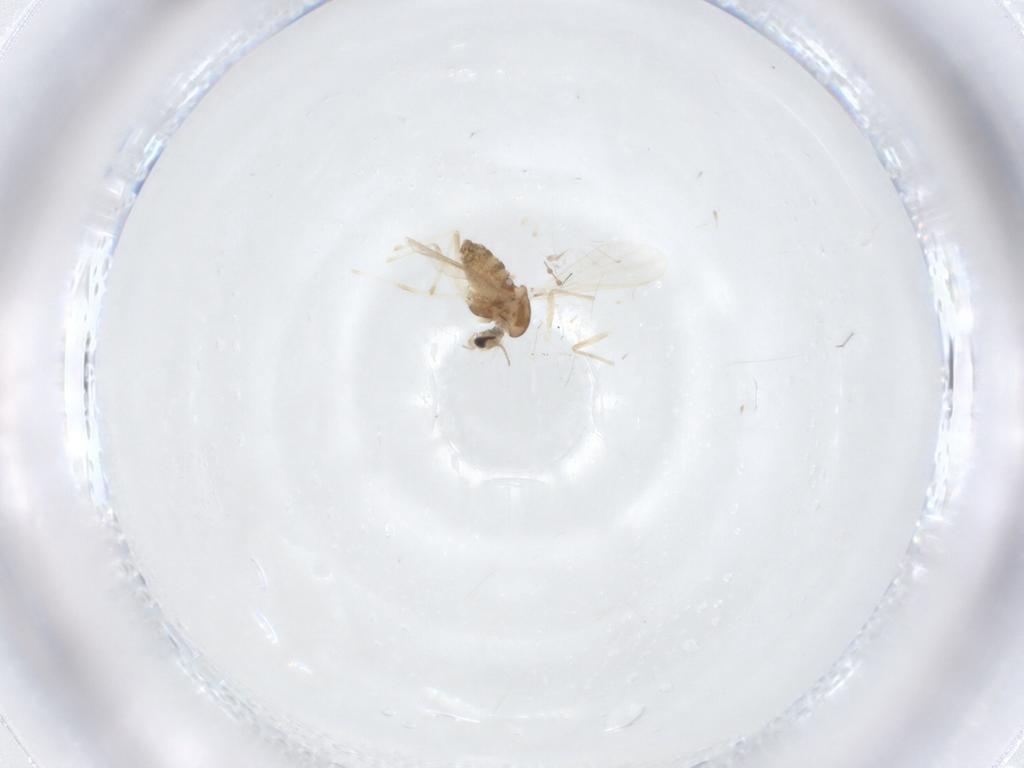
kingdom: Animalia
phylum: Arthropoda
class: Insecta
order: Diptera
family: Chironomidae
